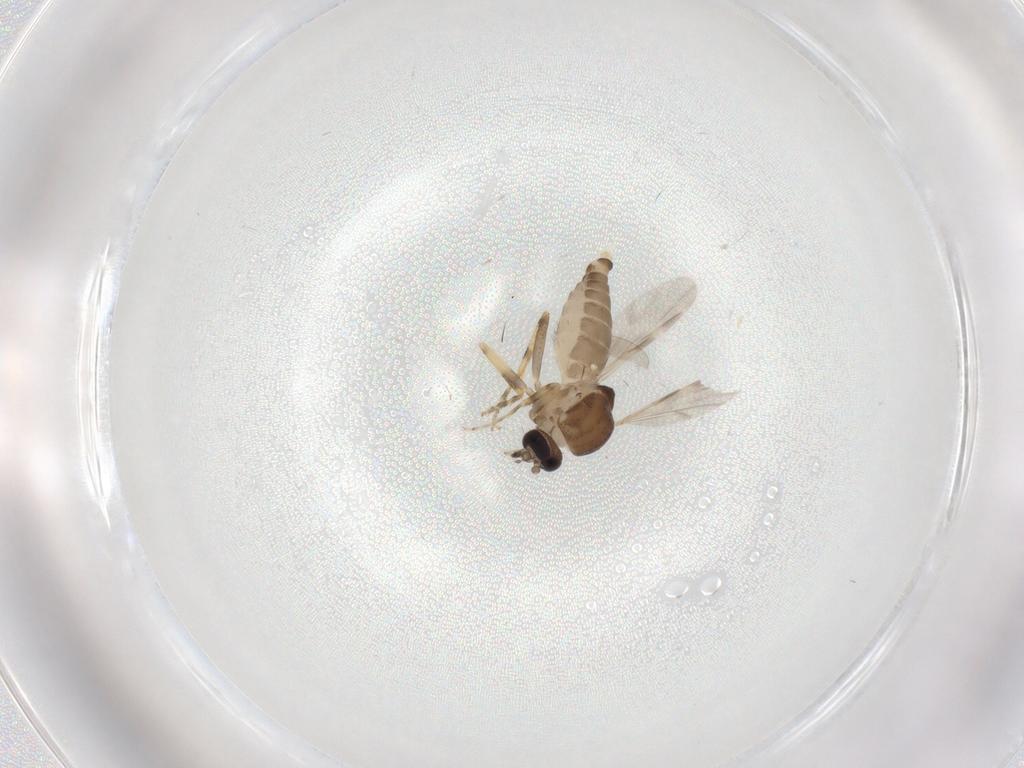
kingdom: Animalia
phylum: Arthropoda
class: Insecta
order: Diptera
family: Ceratopogonidae
